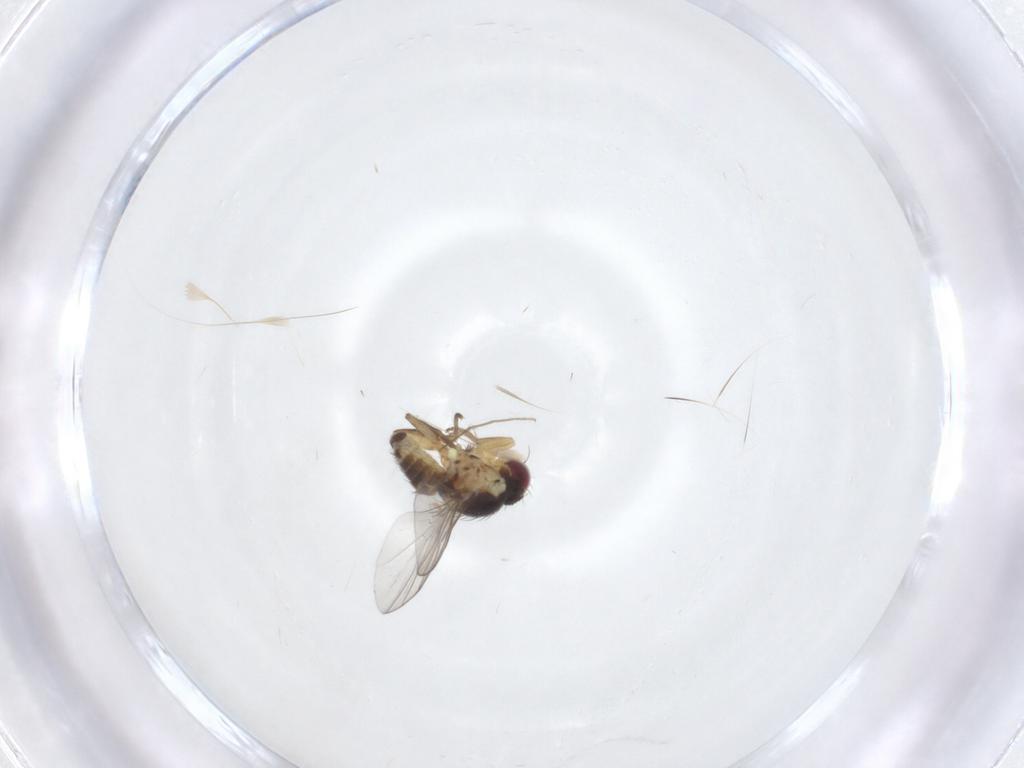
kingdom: Animalia
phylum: Arthropoda
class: Insecta
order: Diptera
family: Agromyzidae
